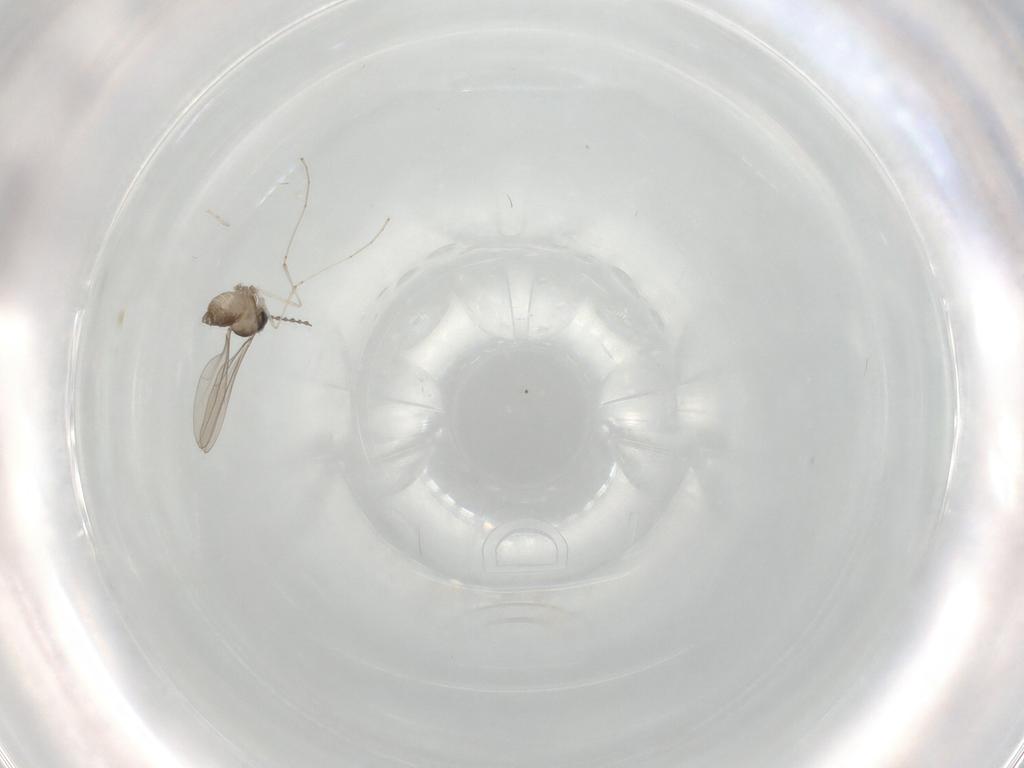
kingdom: Animalia
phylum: Arthropoda
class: Insecta
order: Diptera
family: Cecidomyiidae
